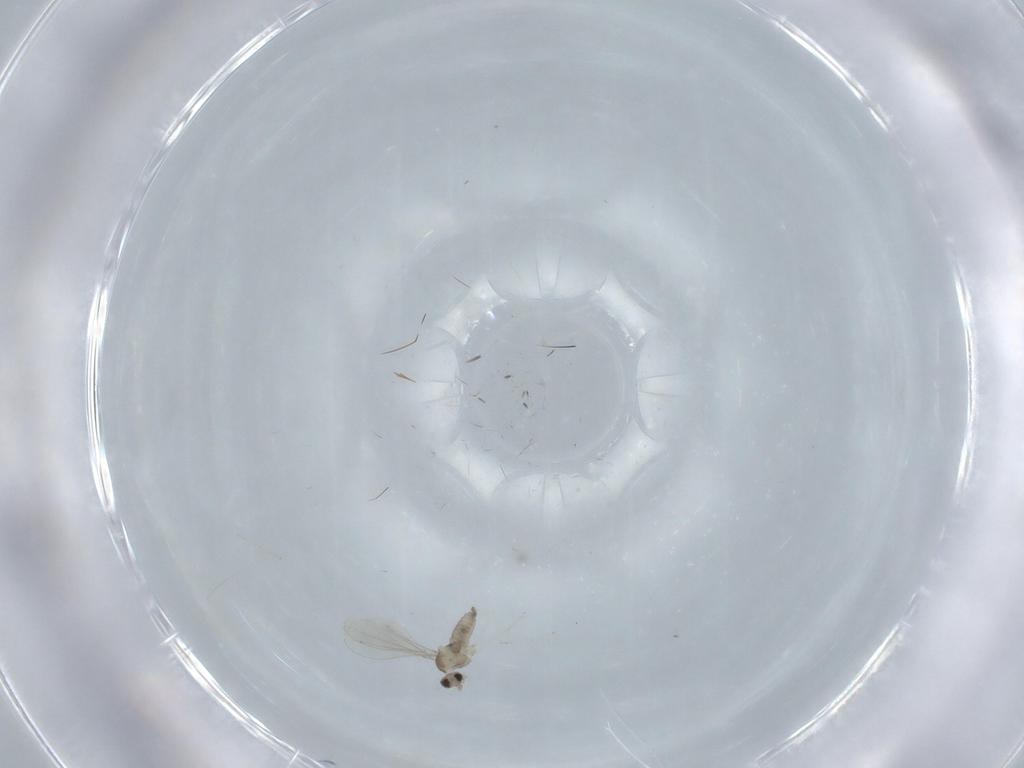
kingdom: Animalia
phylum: Arthropoda
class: Insecta
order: Diptera
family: Cecidomyiidae
